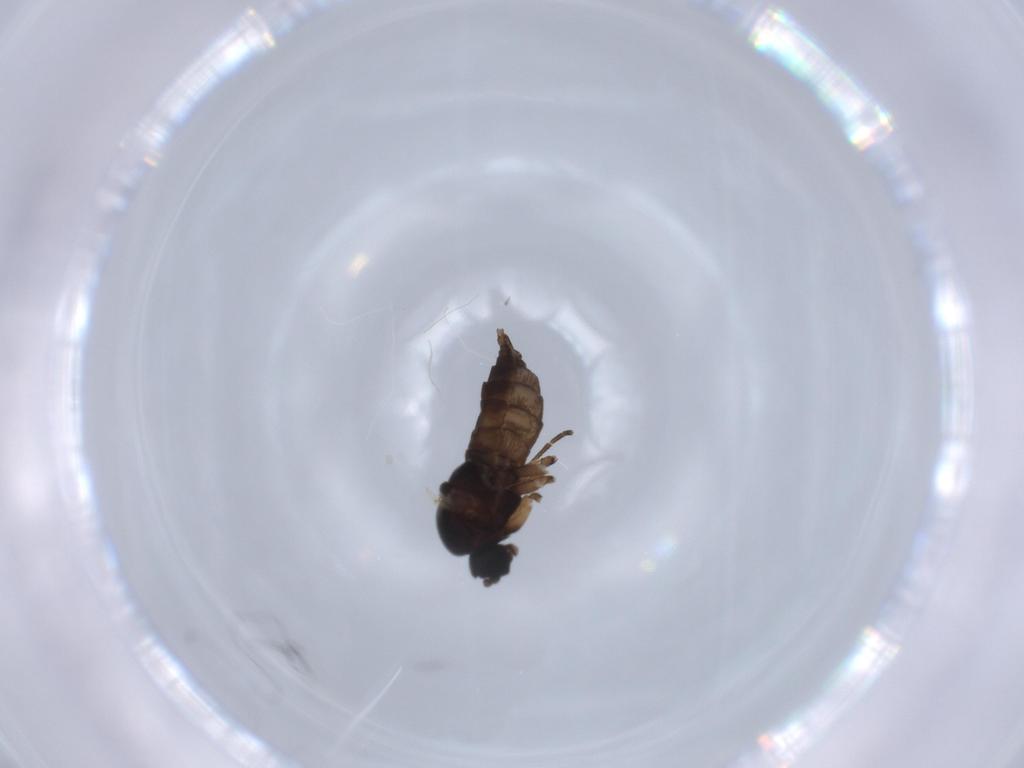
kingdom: Animalia
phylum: Arthropoda
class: Insecta
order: Diptera
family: Sciaridae
